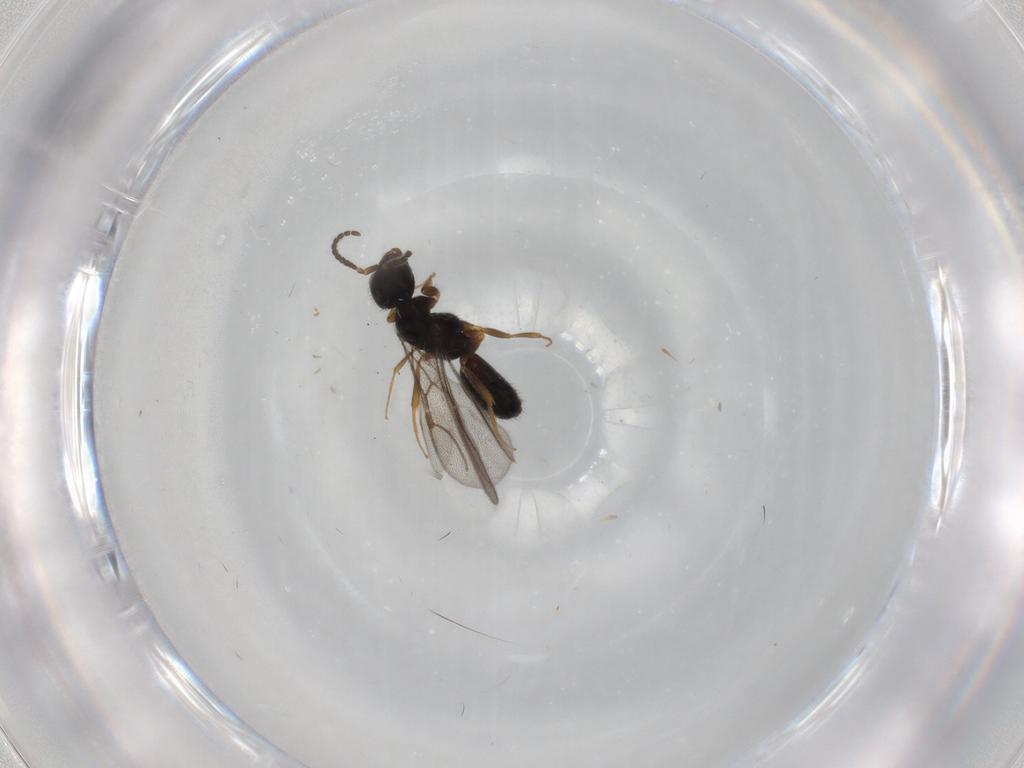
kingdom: Animalia
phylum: Arthropoda
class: Insecta
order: Hymenoptera
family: Bethylidae
